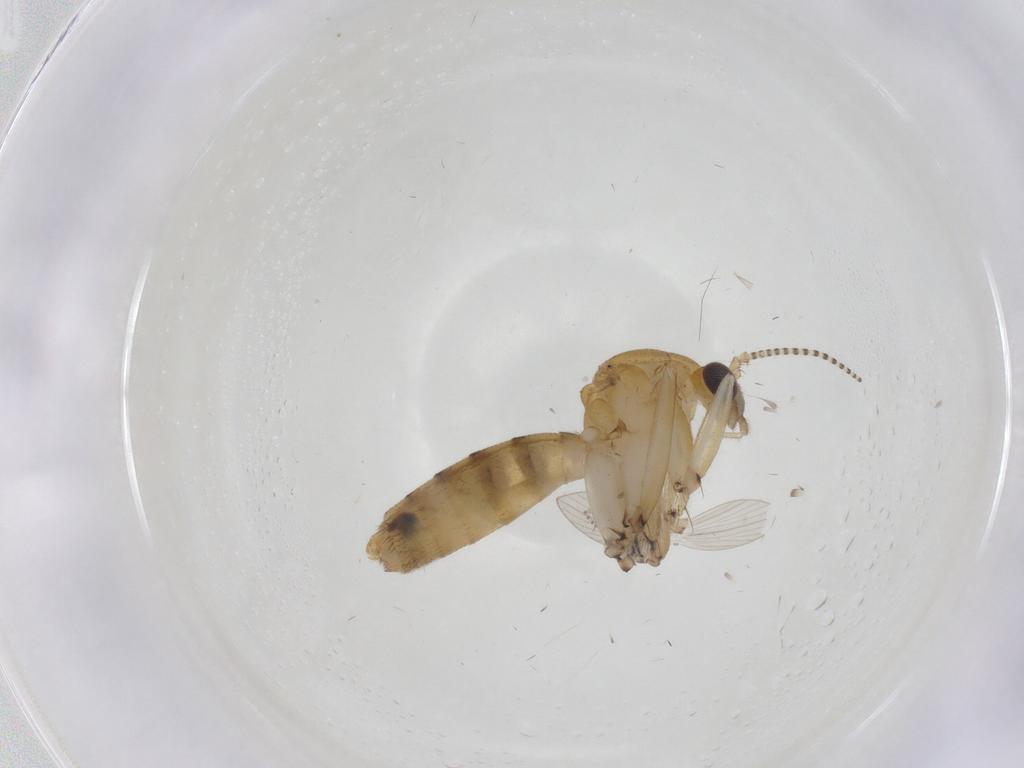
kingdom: Animalia
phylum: Arthropoda
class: Insecta
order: Diptera
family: Psychodidae
